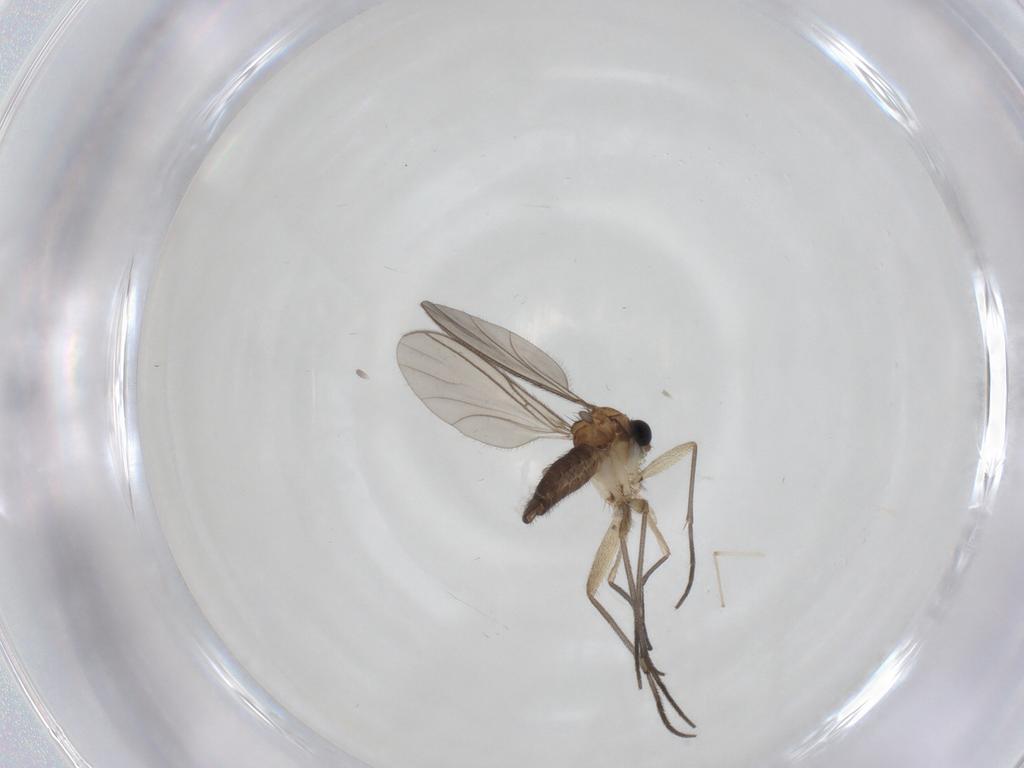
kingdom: Animalia
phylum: Arthropoda
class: Insecta
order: Diptera
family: Sciaridae
